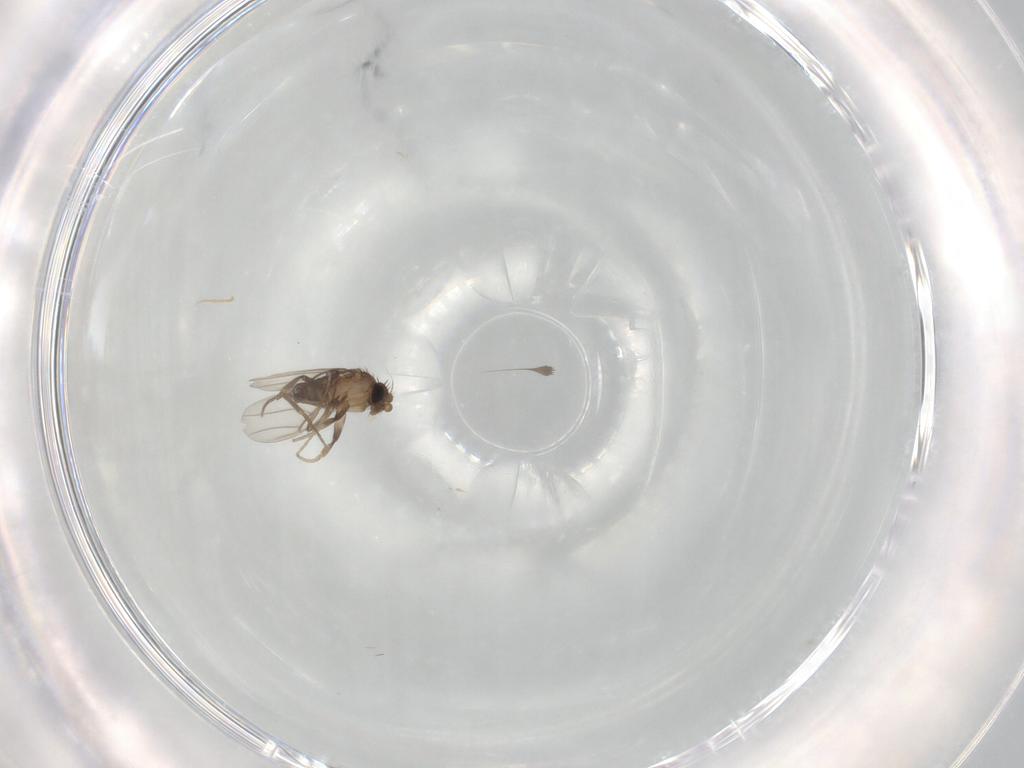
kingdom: Animalia
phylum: Arthropoda
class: Insecta
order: Diptera
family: Phoridae
